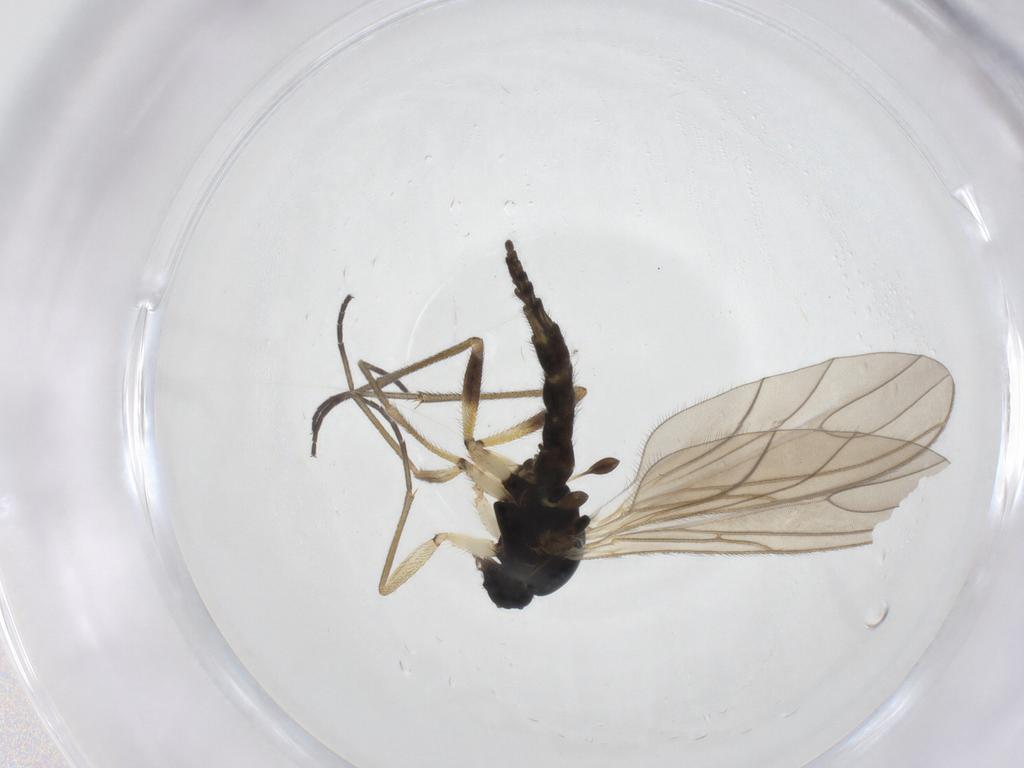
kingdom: Animalia
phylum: Arthropoda
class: Insecta
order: Diptera
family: Sciaridae
